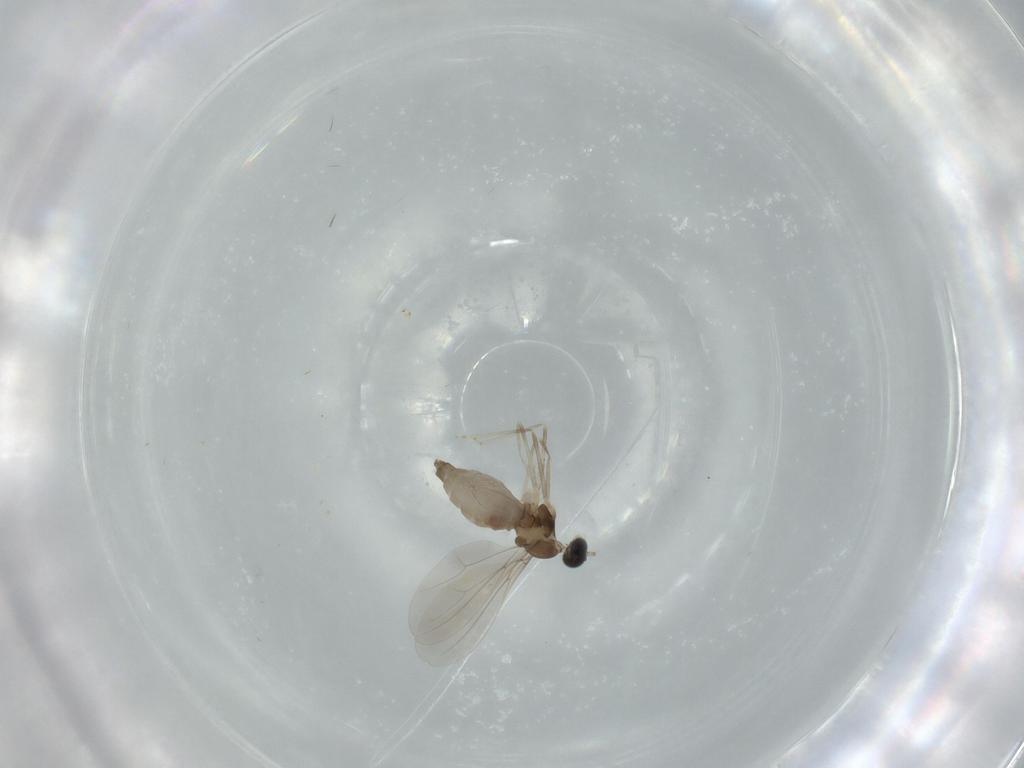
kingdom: Animalia
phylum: Arthropoda
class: Insecta
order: Diptera
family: Cecidomyiidae
